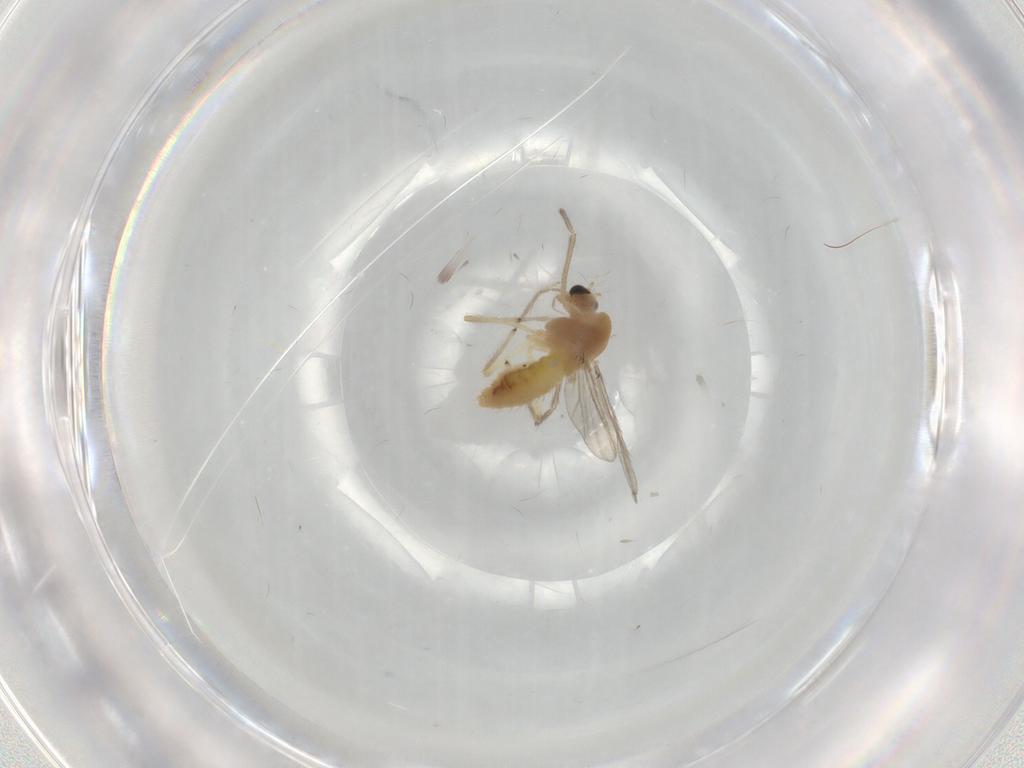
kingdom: Animalia
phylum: Arthropoda
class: Insecta
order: Diptera
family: Chironomidae
